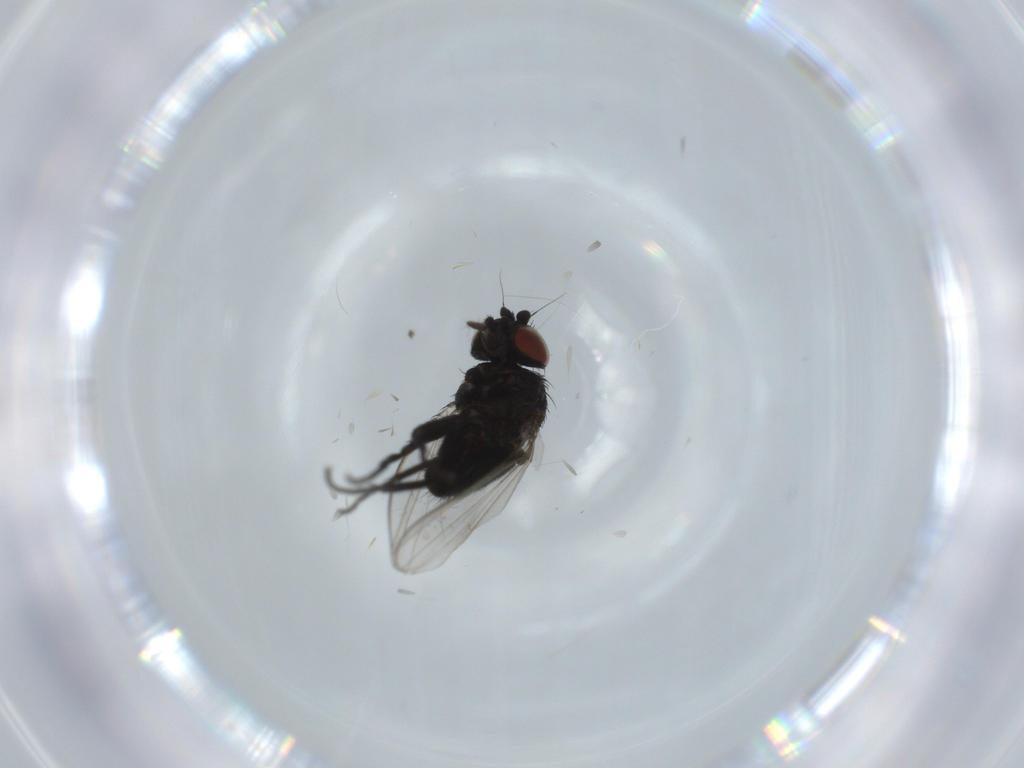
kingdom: Animalia
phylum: Arthropoda
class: Insecta
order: Diptera
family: Milichiidae
